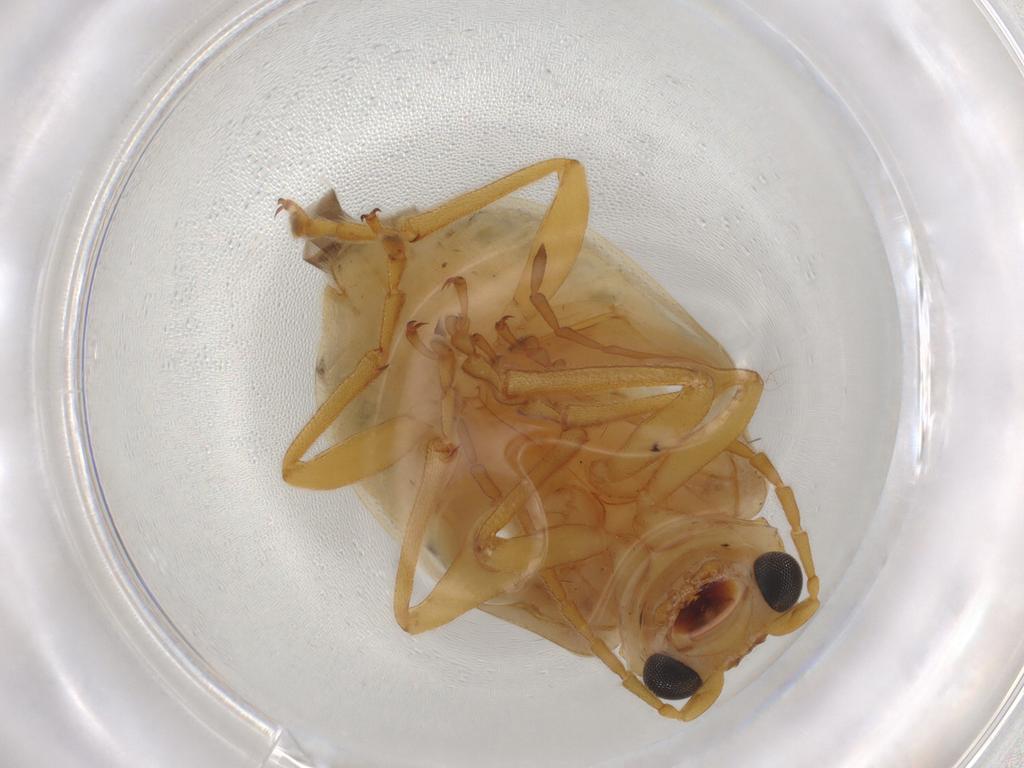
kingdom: Animalia
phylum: Arthropoda
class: Insecta
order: Coleoptera
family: Chrysomelidae
